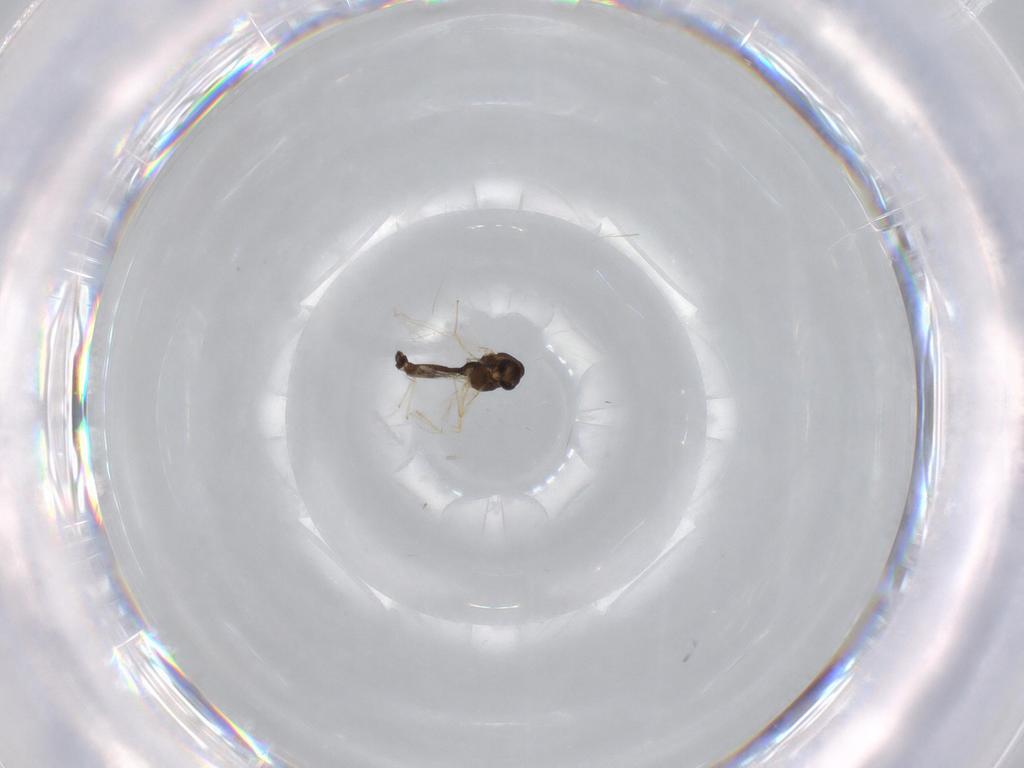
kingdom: Animalia
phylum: Arthropoda
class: Insecta
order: Diptera
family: Chironomidae
